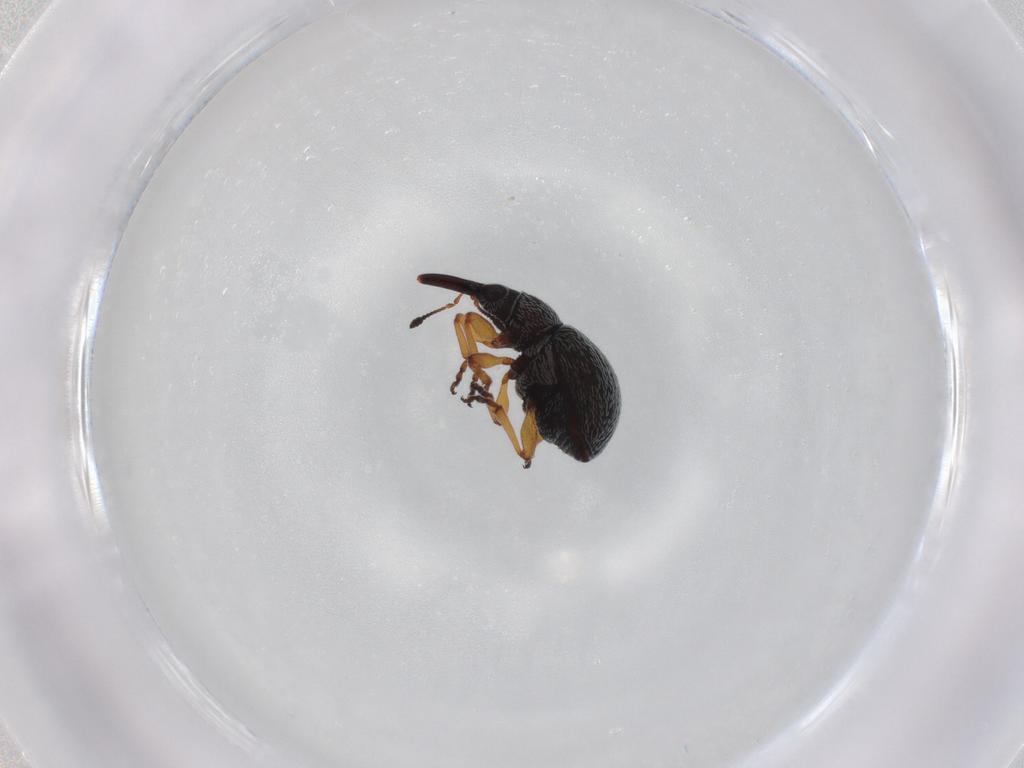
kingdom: Animalia
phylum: Arthropoda
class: Insecta
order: Coleoptera
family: Brentidae
